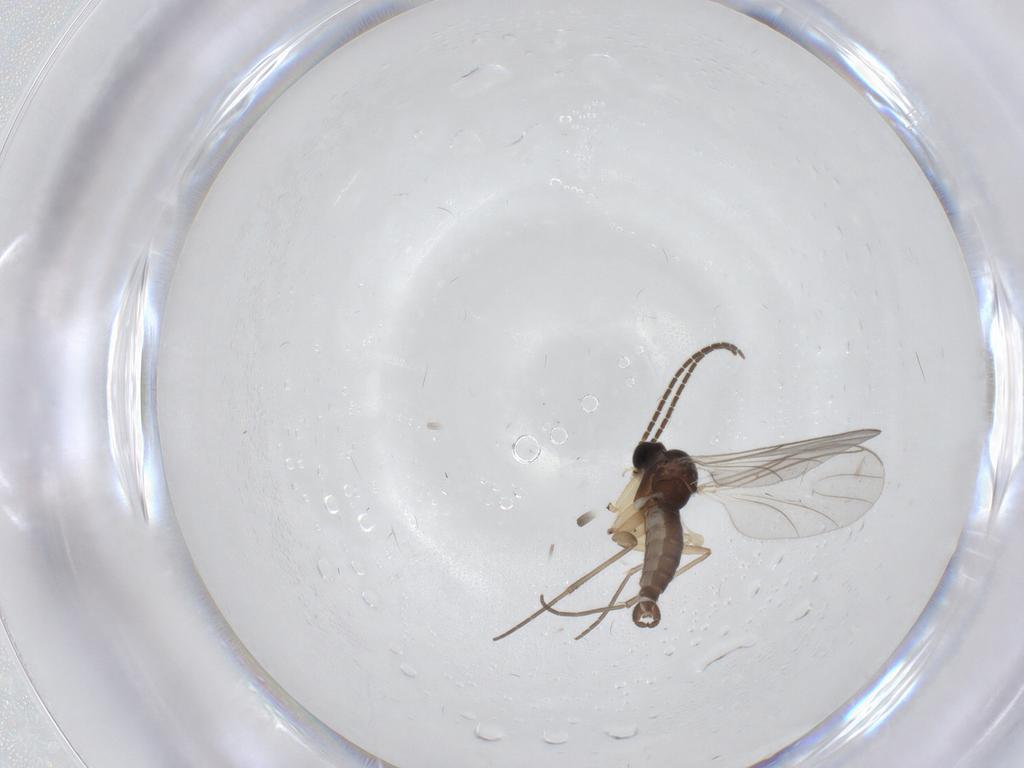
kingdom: Animalia
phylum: Arthropoda
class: Insecta
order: Diptera
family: Sciaridae
